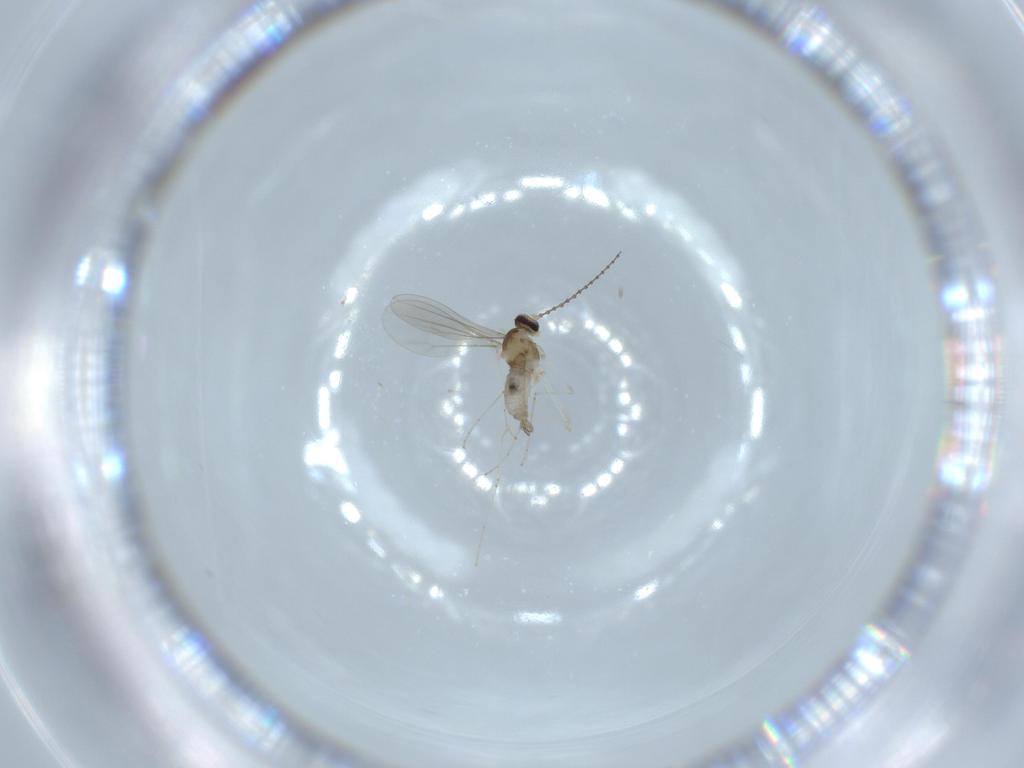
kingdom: Animalia
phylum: Arthropoda
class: Insecta
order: Diptera
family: Cecidomyiidae
